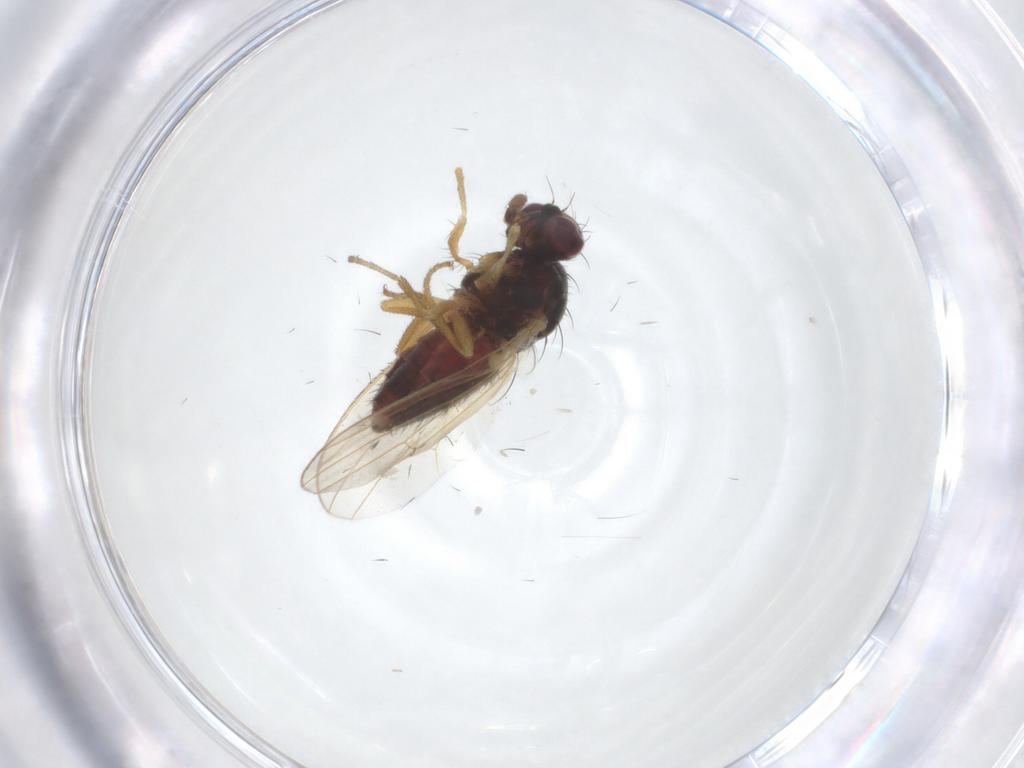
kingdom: Animalia
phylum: Arthropoda
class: Insecta
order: Diptera
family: Heleomyzidae
